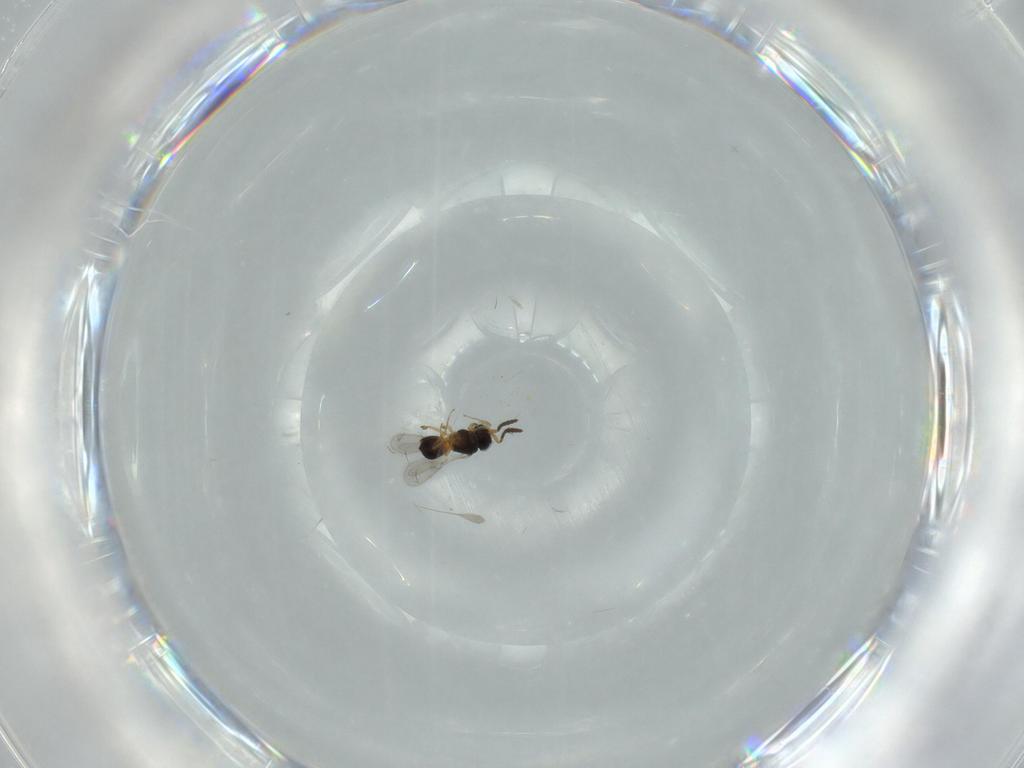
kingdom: Animalia
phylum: Arthropoda
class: Insecta
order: Hymenoptera
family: Scelionidae
